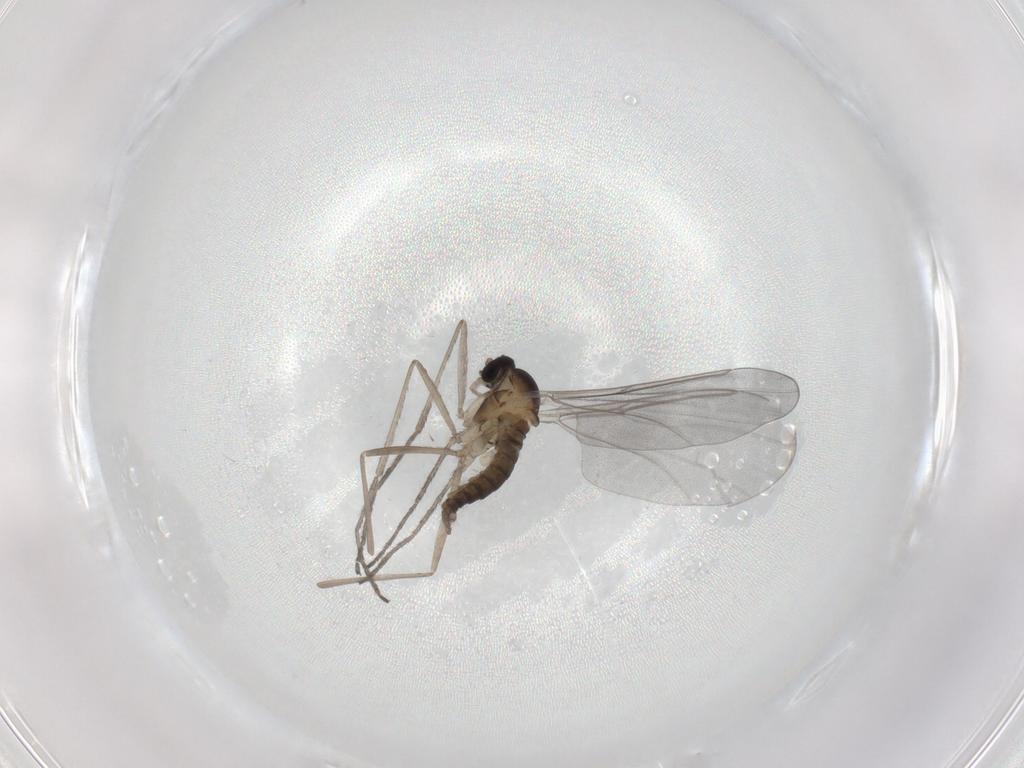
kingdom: Animalia
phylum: Arthropoda
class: Insecta
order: Diptera
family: Cecidomyiidae
